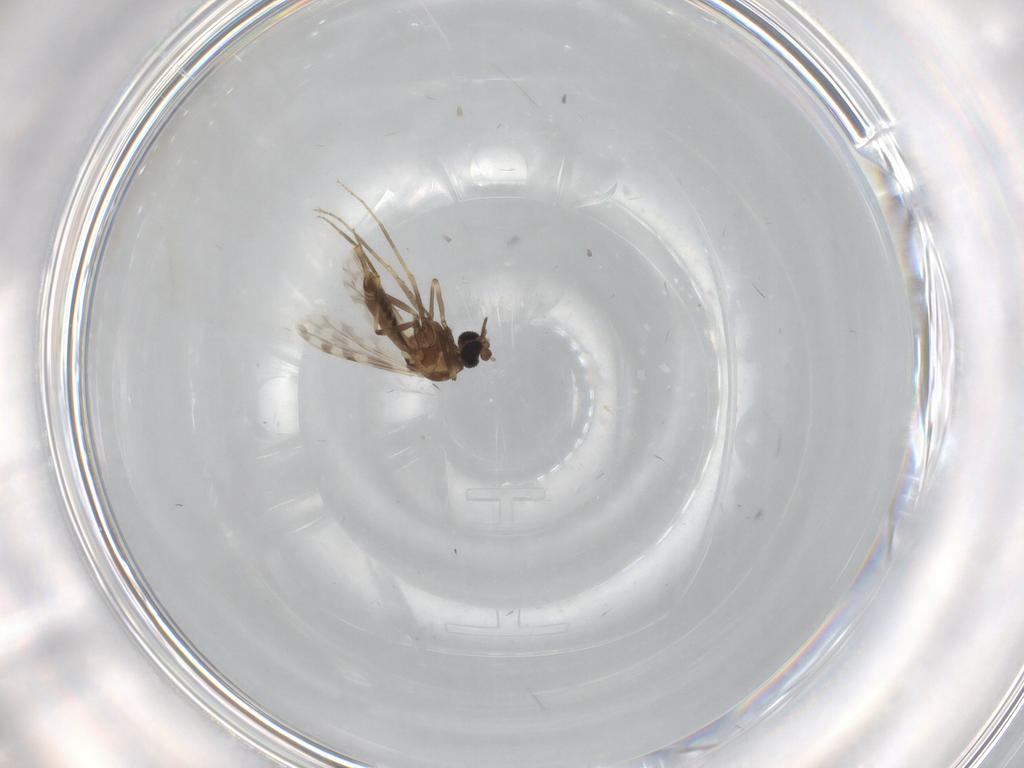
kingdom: Animalia
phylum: Arthropoda
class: Insecta
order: Diptera
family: Ceratopogonidae
